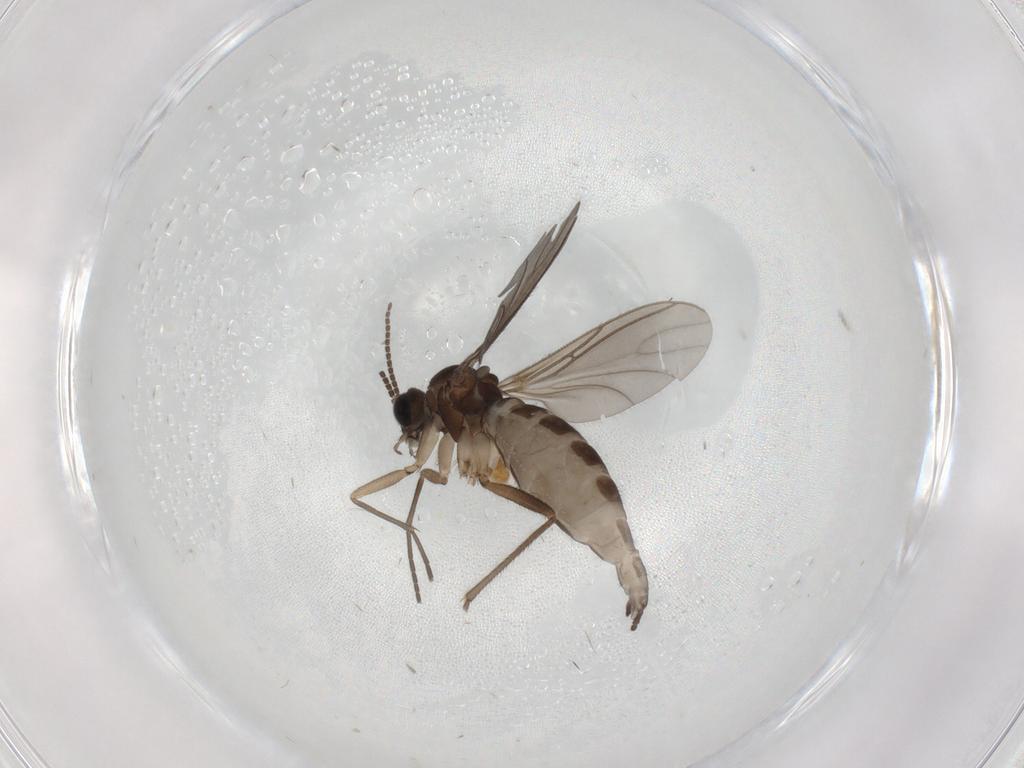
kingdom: Animalia
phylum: Arthropoda
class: Insecta
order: Diptera
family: Sciaridae
